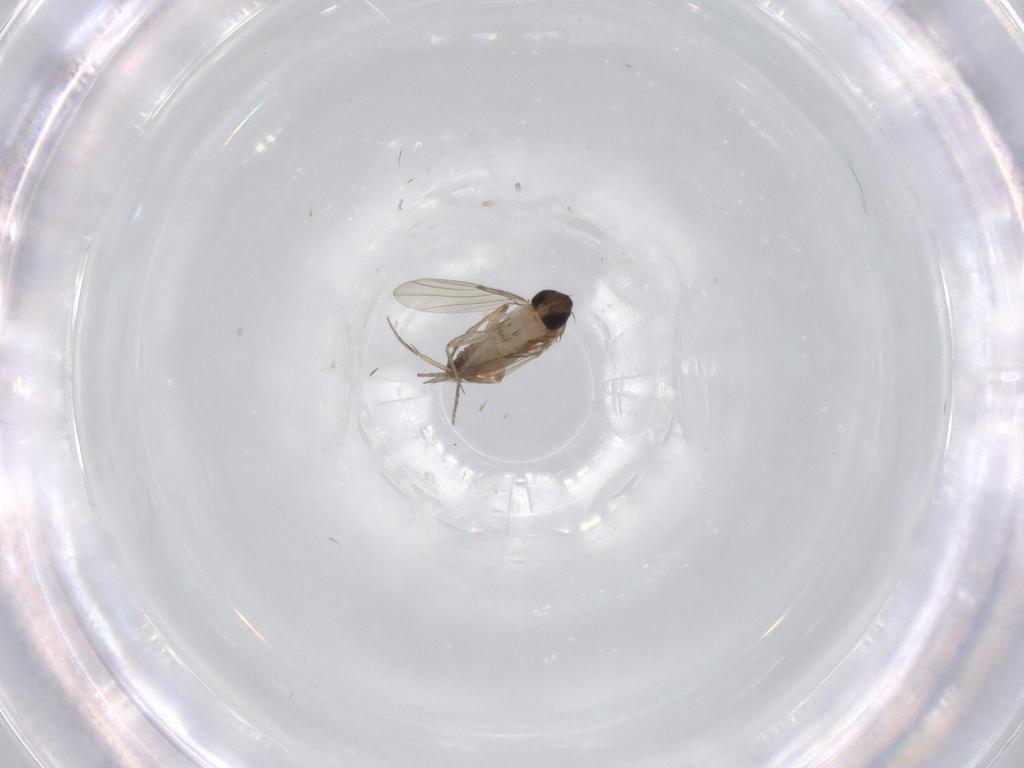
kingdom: Animalia
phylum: Arthropoda
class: Insecta
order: Diptera
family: Phoridae
